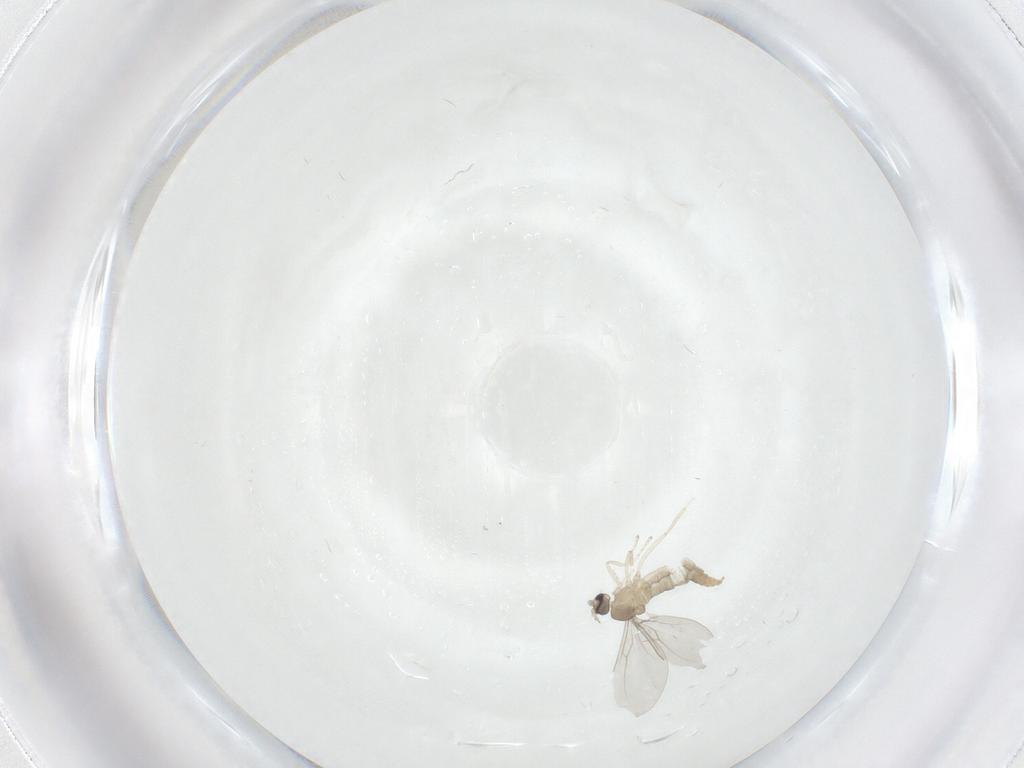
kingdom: Animalia
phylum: Arthropoda
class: Insecta
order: Diptera
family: Cecidomyiidae
